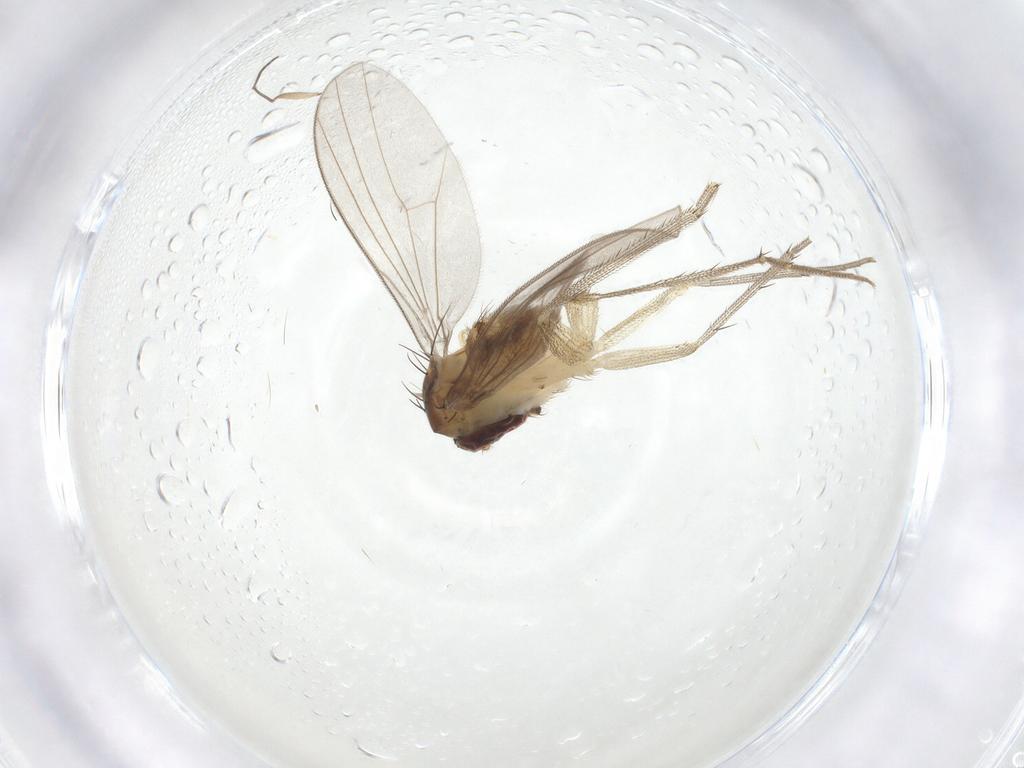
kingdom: Animalia
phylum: Arthropoda
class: Insecta
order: Diptera
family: Dolichopodidae
